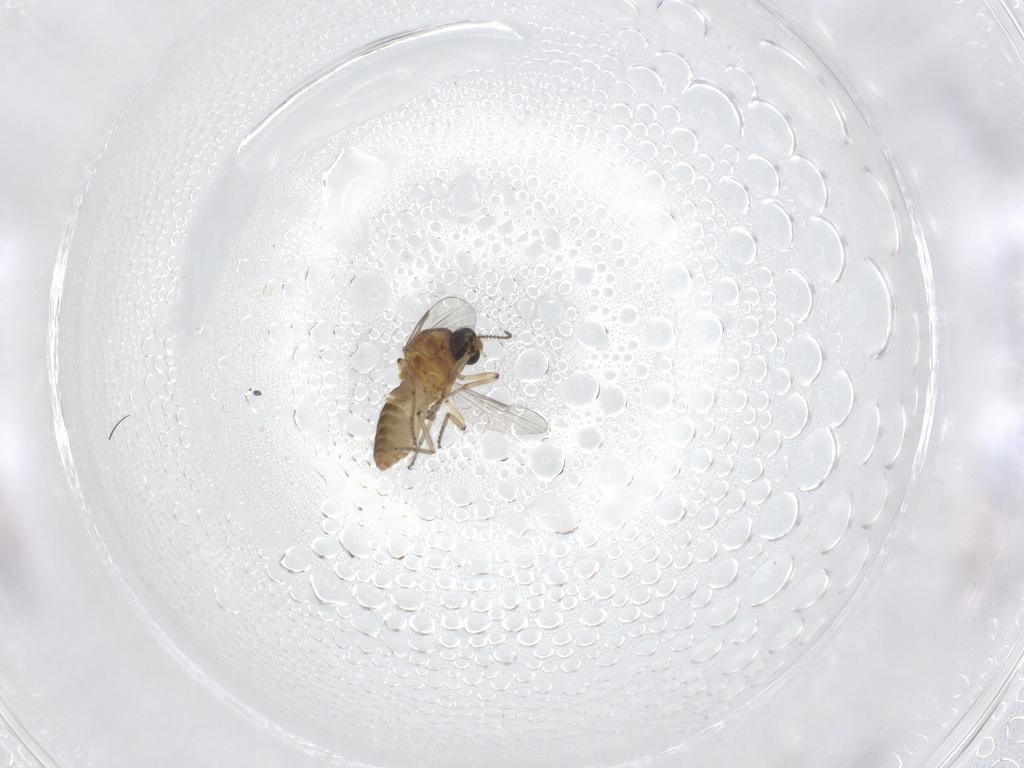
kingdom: Animalia
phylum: Arthropoda
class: Insecta
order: Diptera
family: Ceratopogonidae
